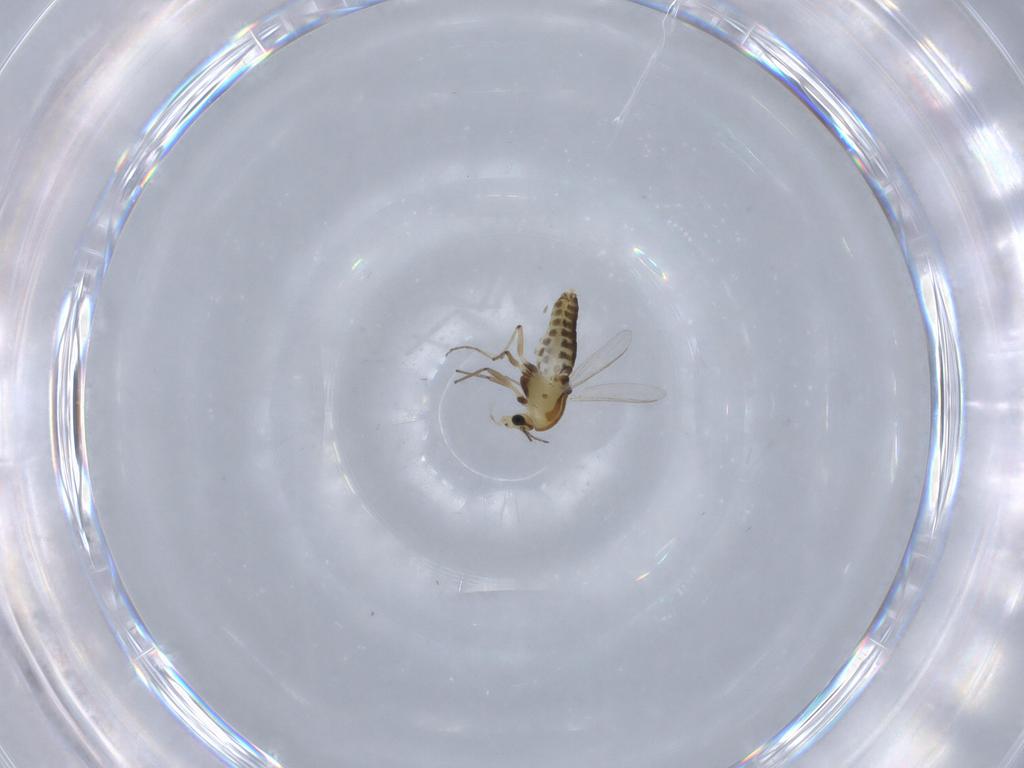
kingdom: Animalia
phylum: Arthropoda
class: Insecta
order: Diptera
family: Chironomidae
